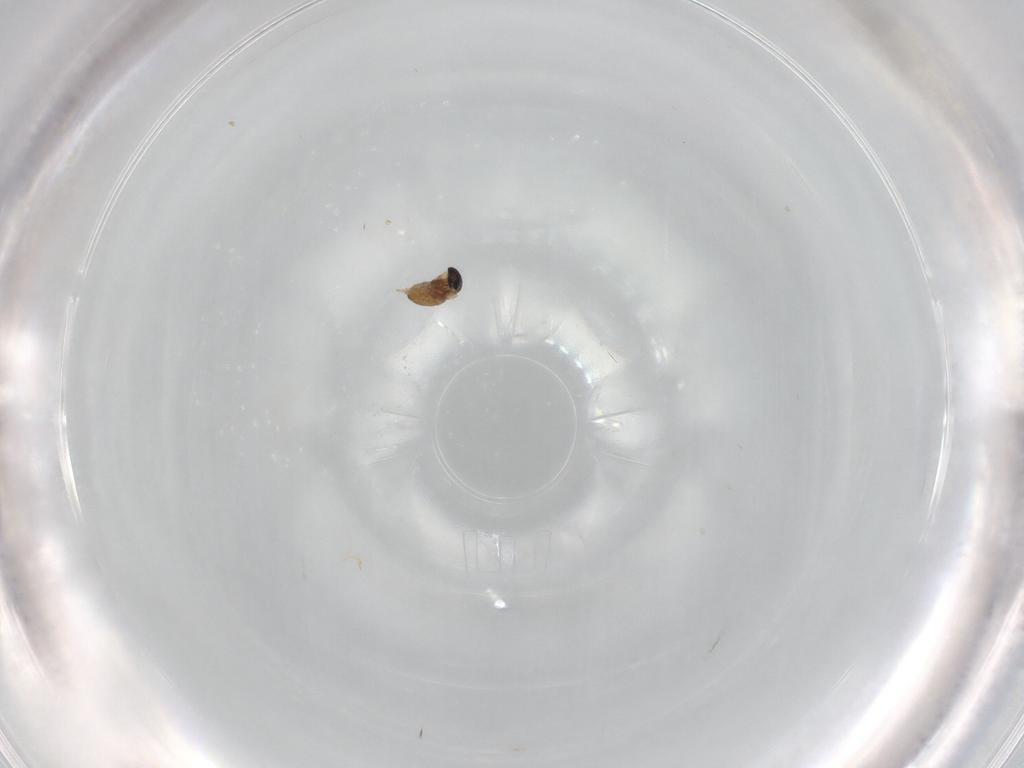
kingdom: Animalia
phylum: Arthropoda
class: Insecta
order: Diptera
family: Cecidomyiidae
